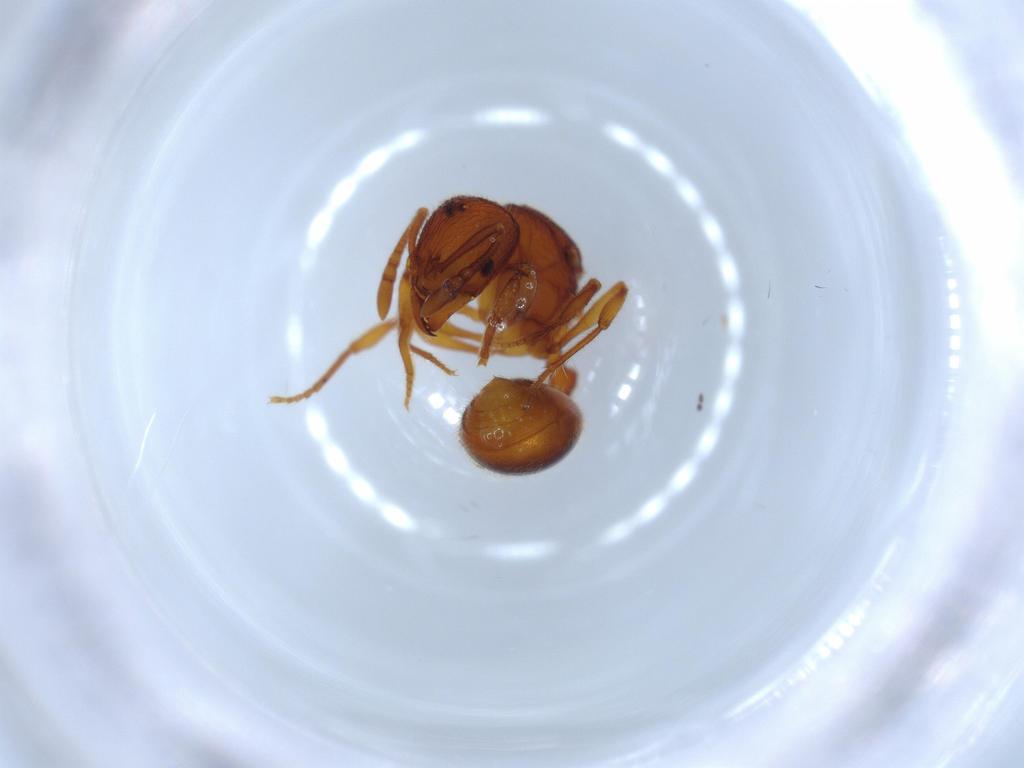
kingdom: Animalia
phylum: Arthropoda
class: Insecta
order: Hymenoptera
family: Formicidae
